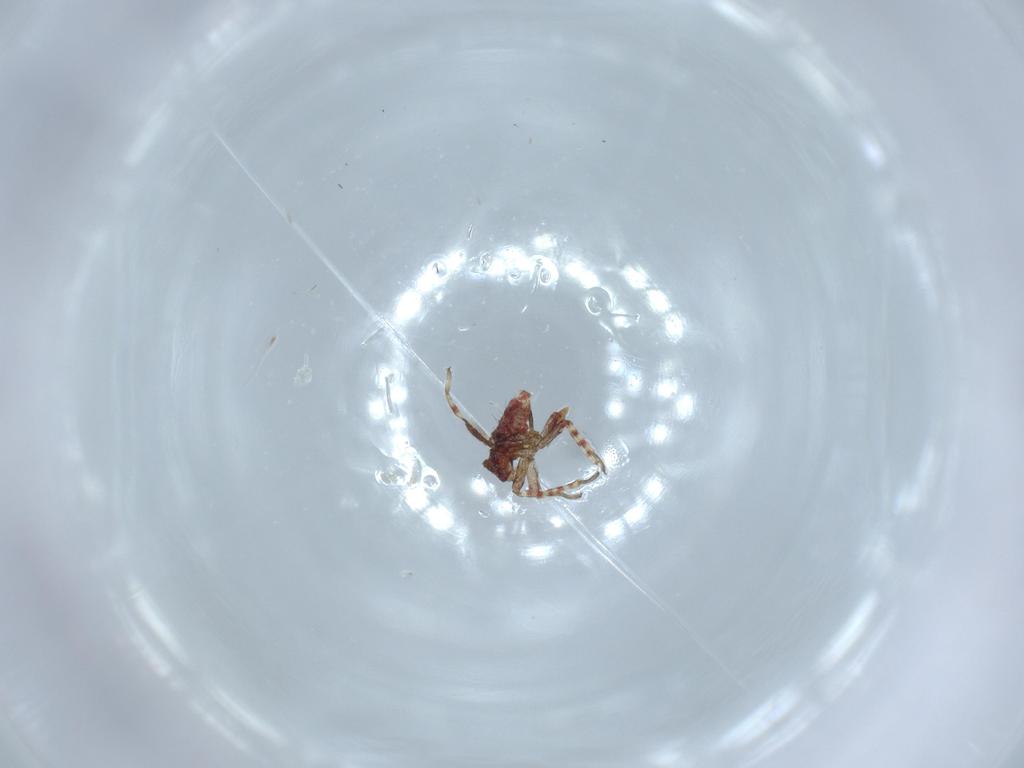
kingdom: Animalia
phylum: Arthropoda
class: Insecta
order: Hemiptera
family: Miridae
